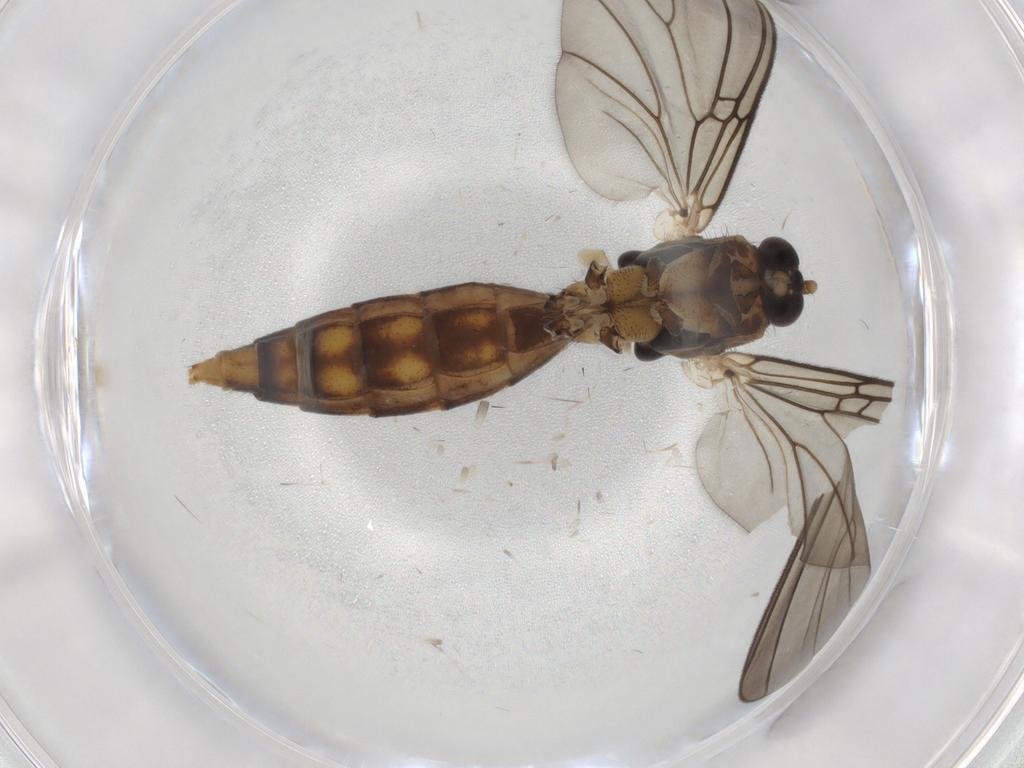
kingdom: Animalia
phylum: Arthropoda
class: Insecta
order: Diptera
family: Mycetophilidae
